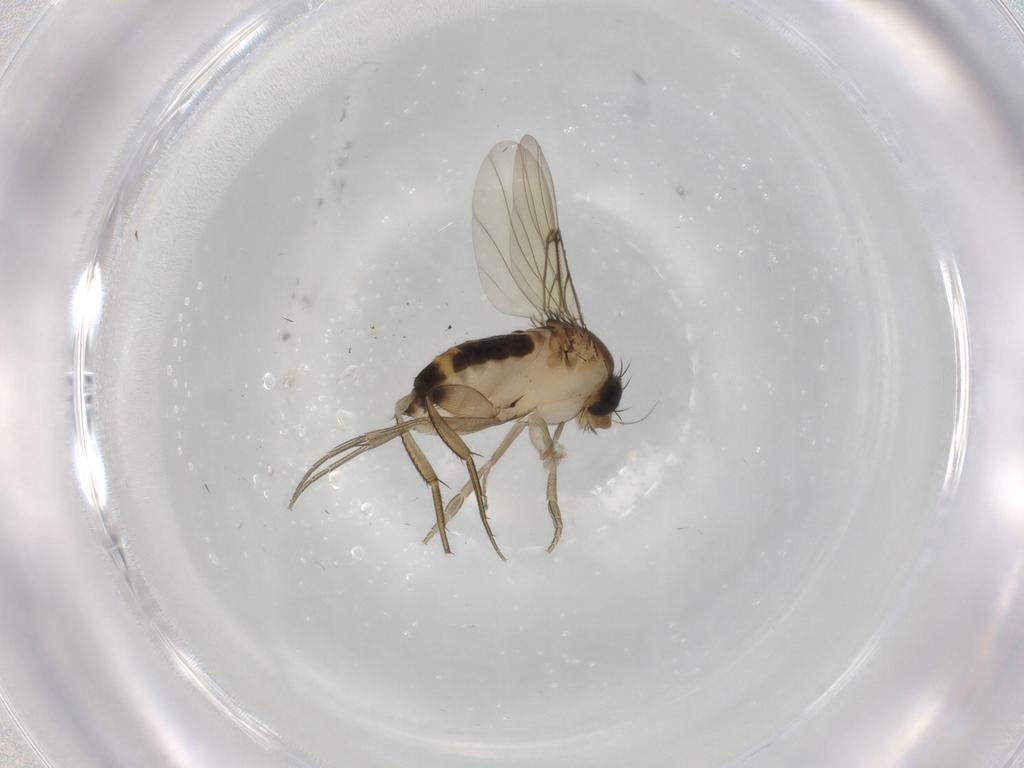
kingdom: Animalia
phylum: Arthropoda
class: Insecta
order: Diptera
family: Chironomidae
